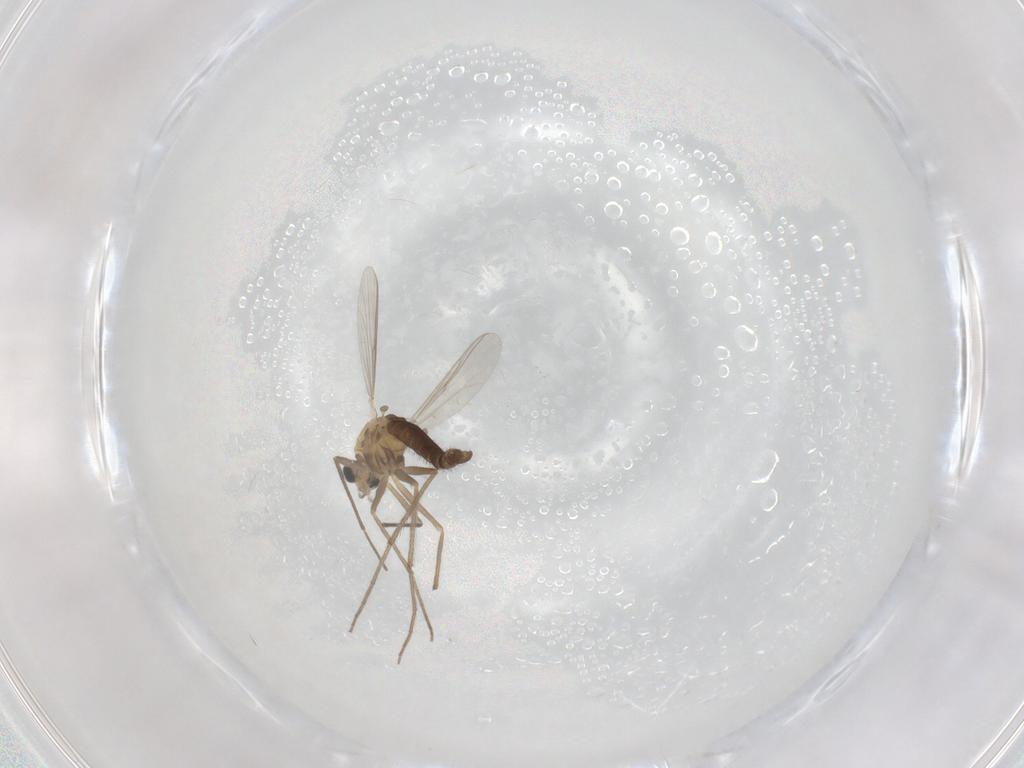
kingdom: Animalia
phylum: Arthropoda
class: Insecta
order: Diptera
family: Chironomidae
